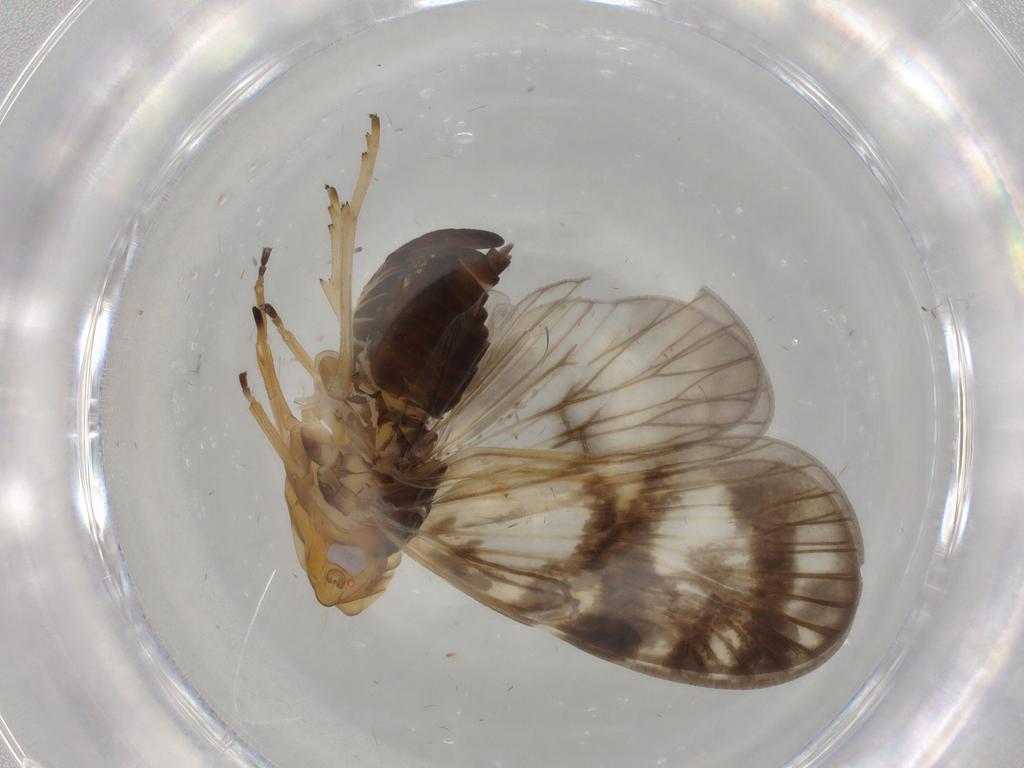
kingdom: Animalia
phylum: Arthropoda
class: Insecta
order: Hemiptera
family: Cixiidae
